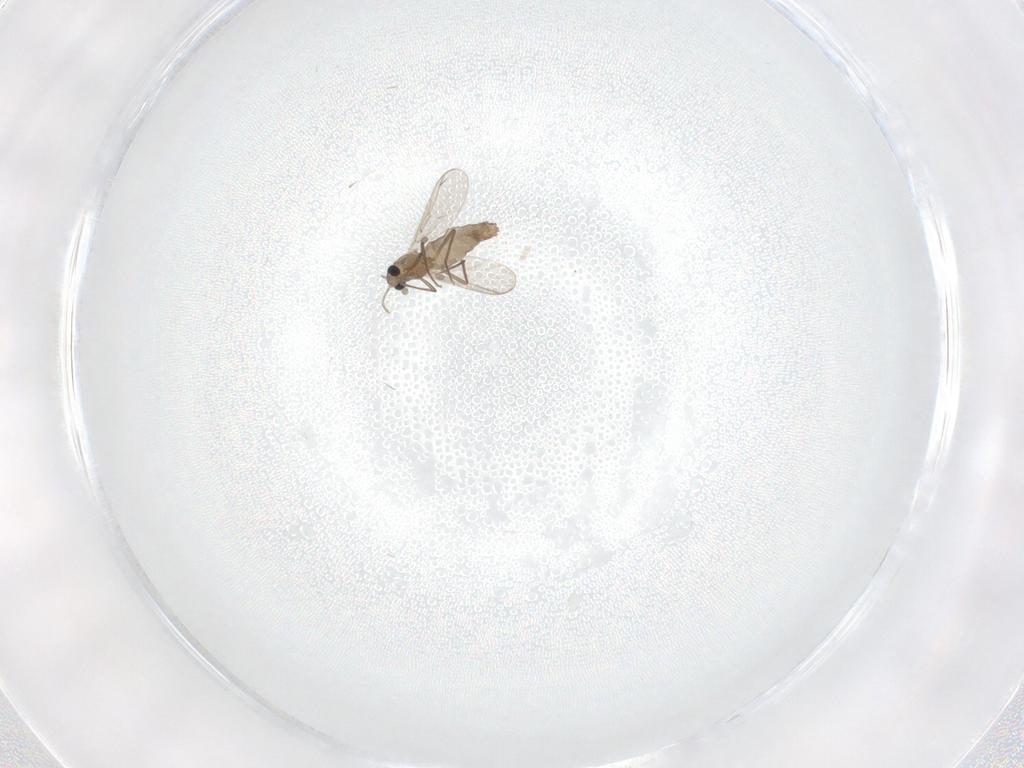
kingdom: Animalia
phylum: Arthropoda
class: Insecta
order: Diptera
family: Chironomidae
